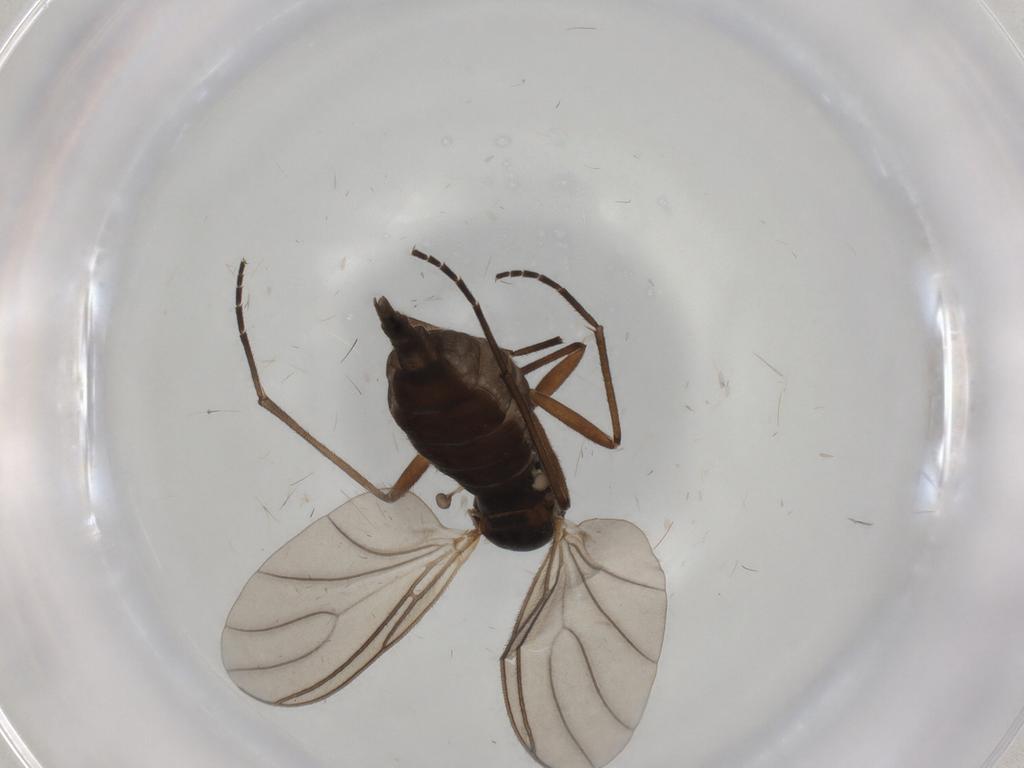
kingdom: Animalia
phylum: Arthropoda
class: Insecta
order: Diptera
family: Sciaridae
